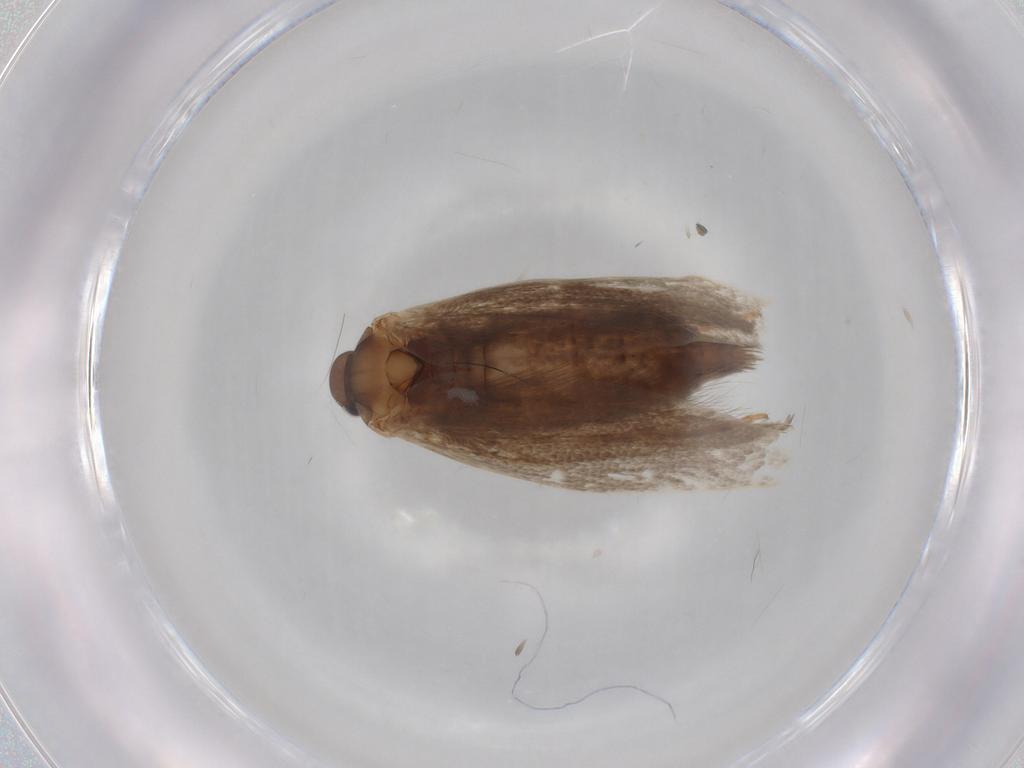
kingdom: Animalia
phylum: Arthropoda
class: Insecta
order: Lepidoptera
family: Elachistidae
